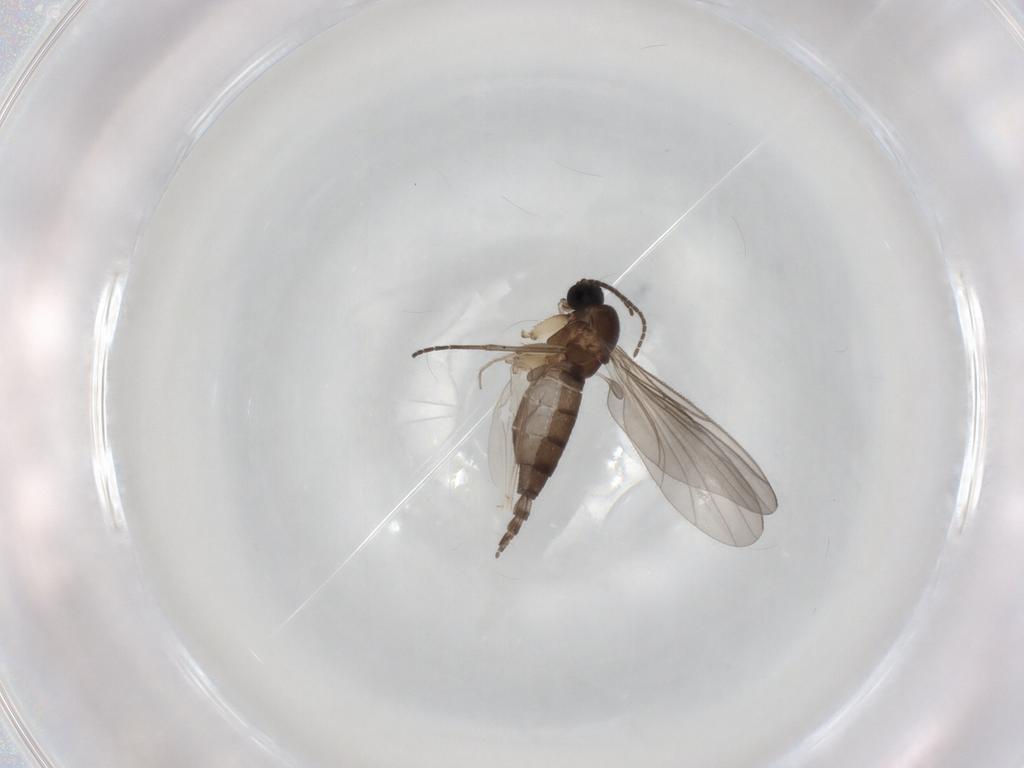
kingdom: Animalia
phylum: Arthropoda
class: Insecta
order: Diptera
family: Sciaridae
